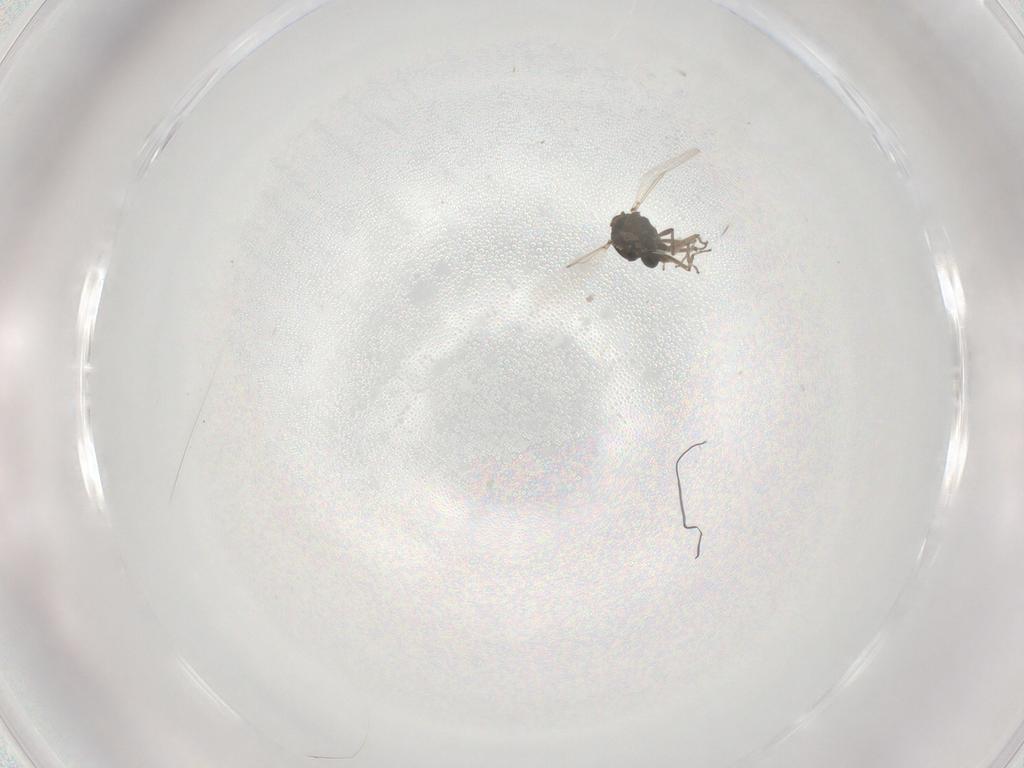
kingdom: Animalia
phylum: Arthropoda
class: Insecta
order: Diptera
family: Ceratopogonidae
